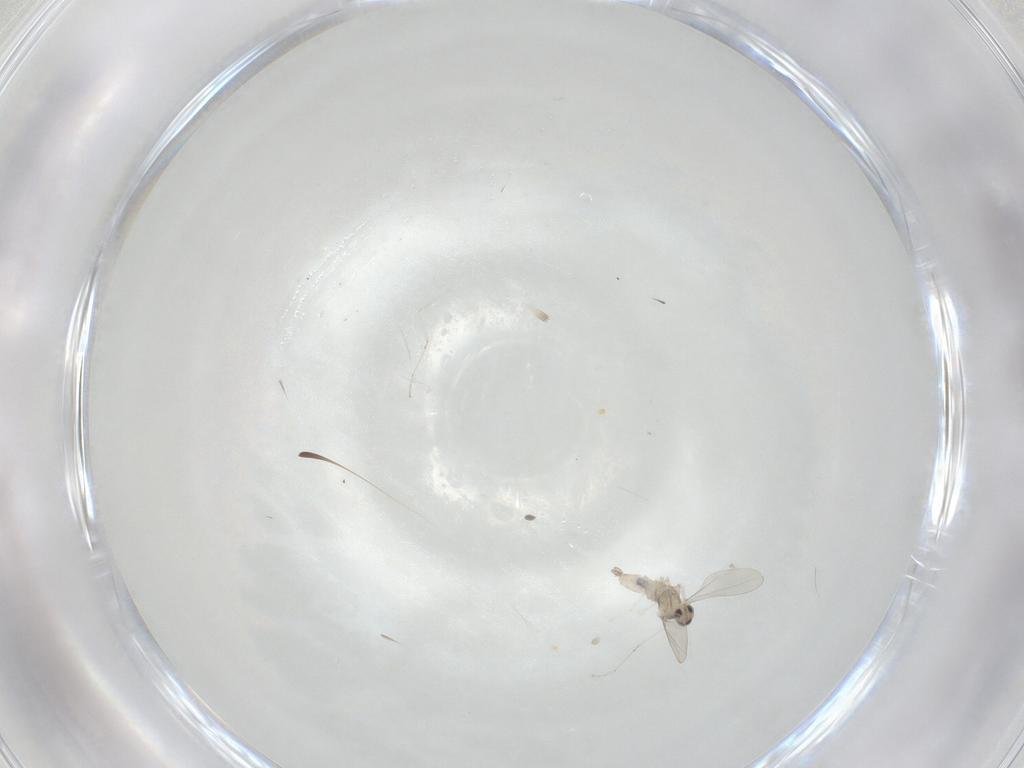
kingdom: Animalia
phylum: Arthropoda
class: Insecta
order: Diptera
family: Cecidomyiidae
